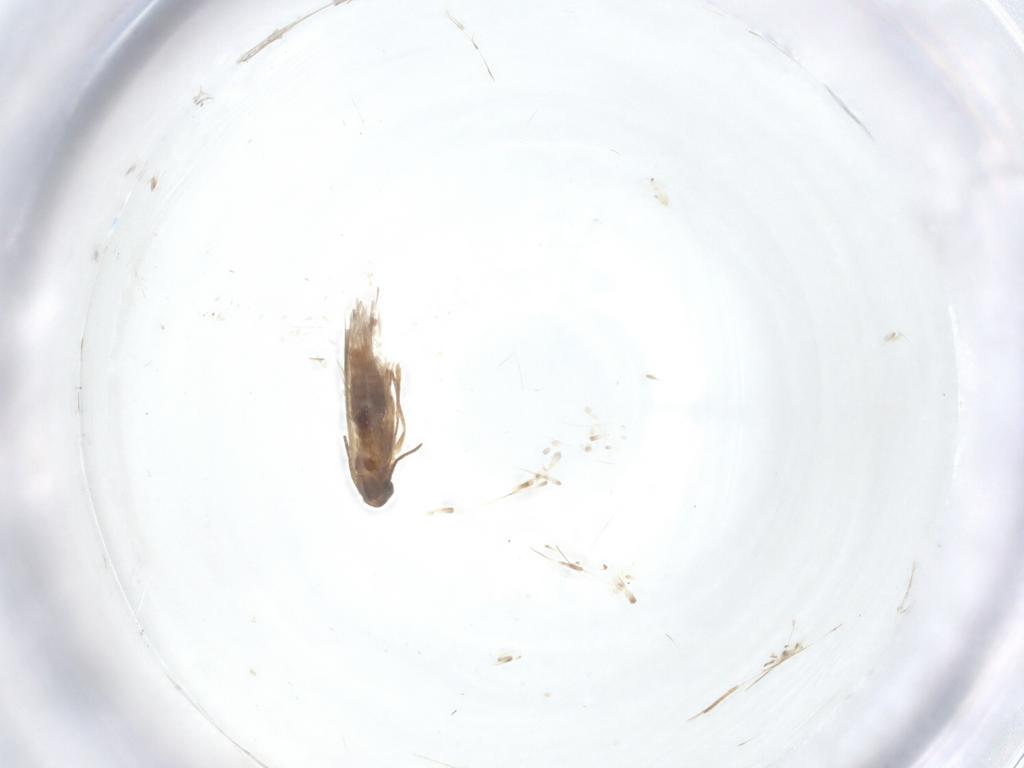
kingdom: Animalia
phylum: Arthropoda
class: Insecta
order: Lepidoptera
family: Heliozelidae
